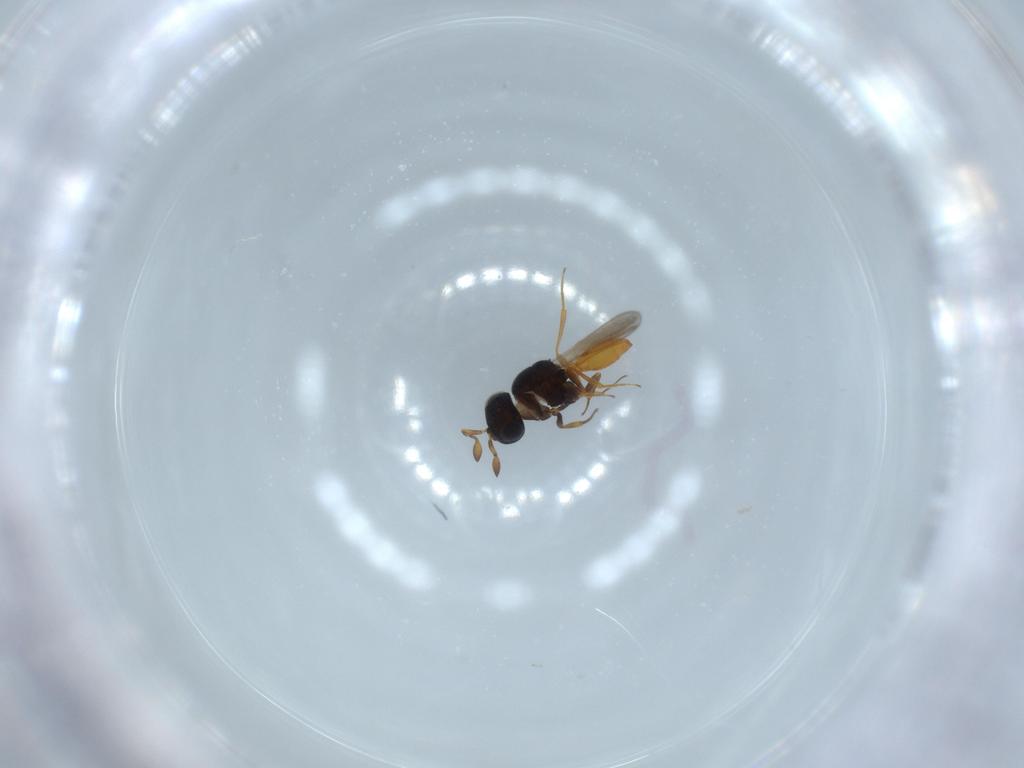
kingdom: Animalia
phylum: Arthropoda
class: Insecta
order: Hymenoptera
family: Scelionidae
